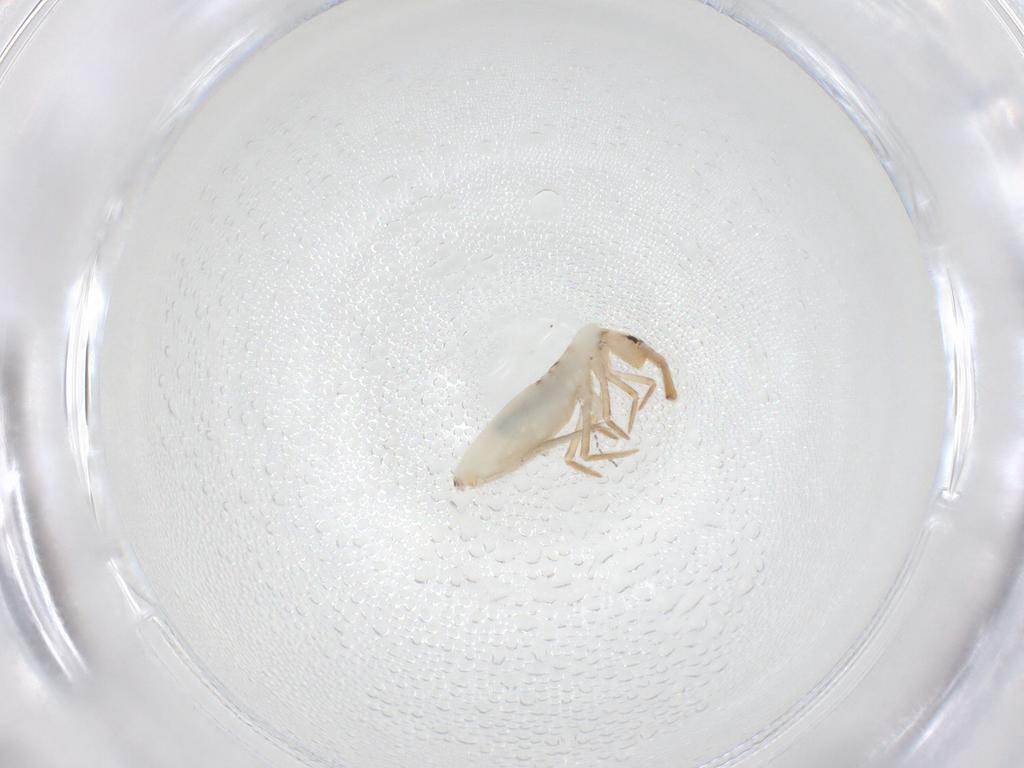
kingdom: Animalia
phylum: Arthropoda
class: Collembola
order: Entomobryomorpha
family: Entomobryidae
